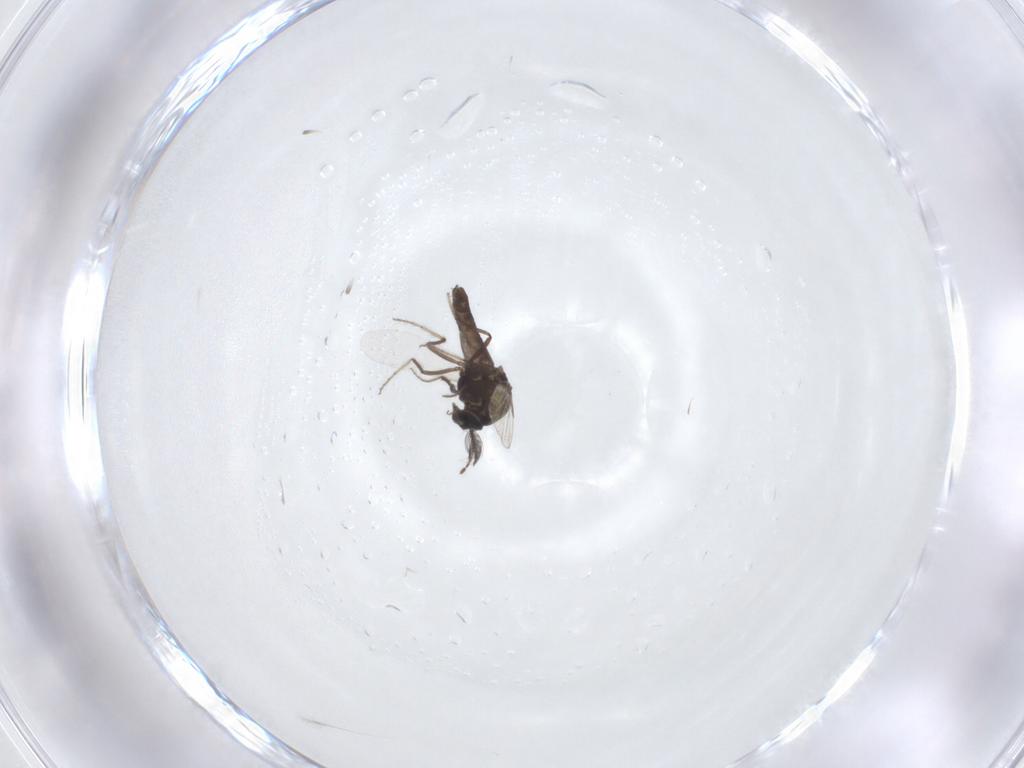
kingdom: Animalia
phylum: Arthropoda
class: Insecta
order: Diptera
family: Ceratopogonidae
